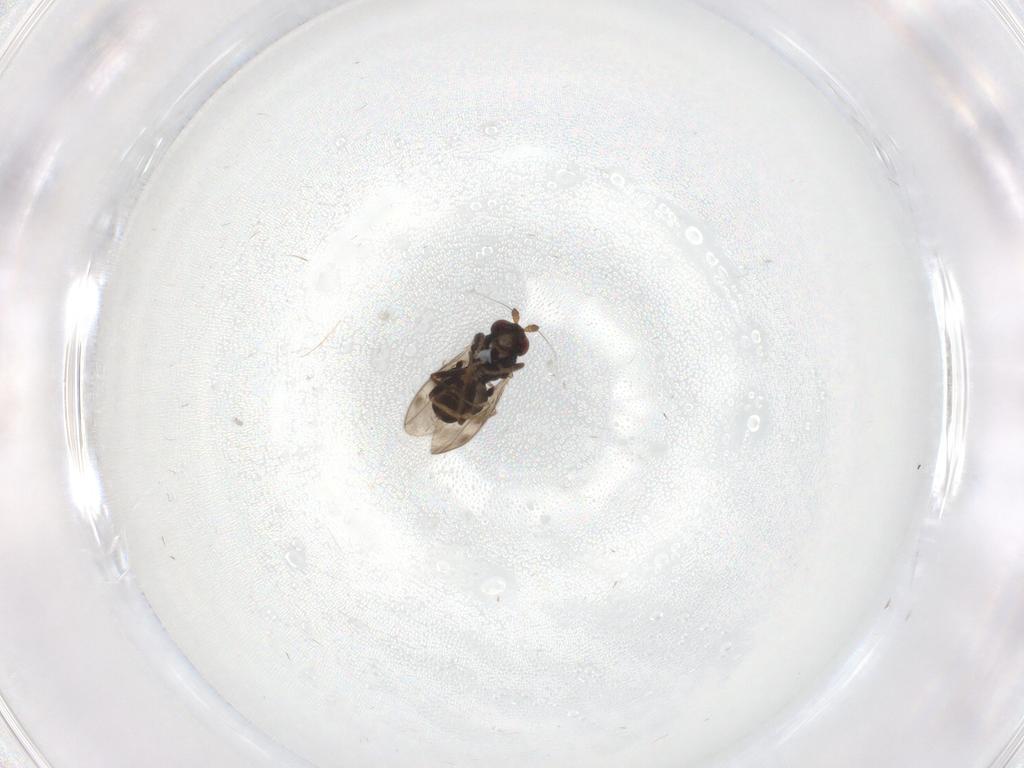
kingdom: Animalia
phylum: Arthropoda
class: Insecta
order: Diptera
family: Sphaeroceridae
